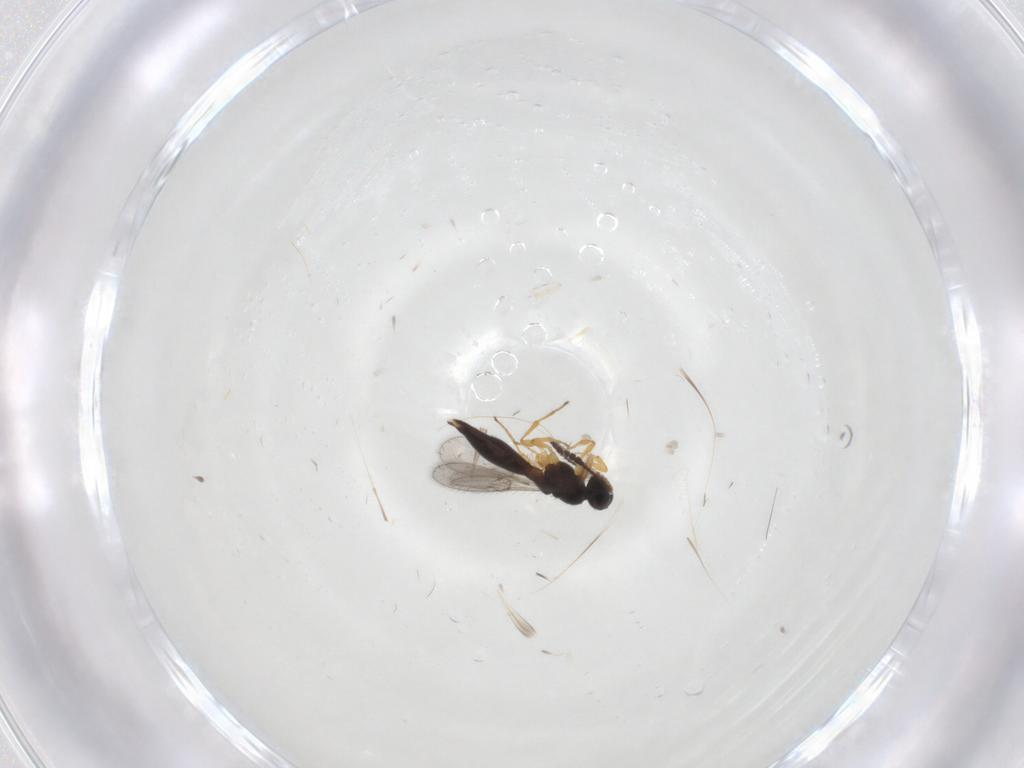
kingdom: Animalia
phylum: Arthropoda
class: Insecta
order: Hymenoptera
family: Scelionidae
